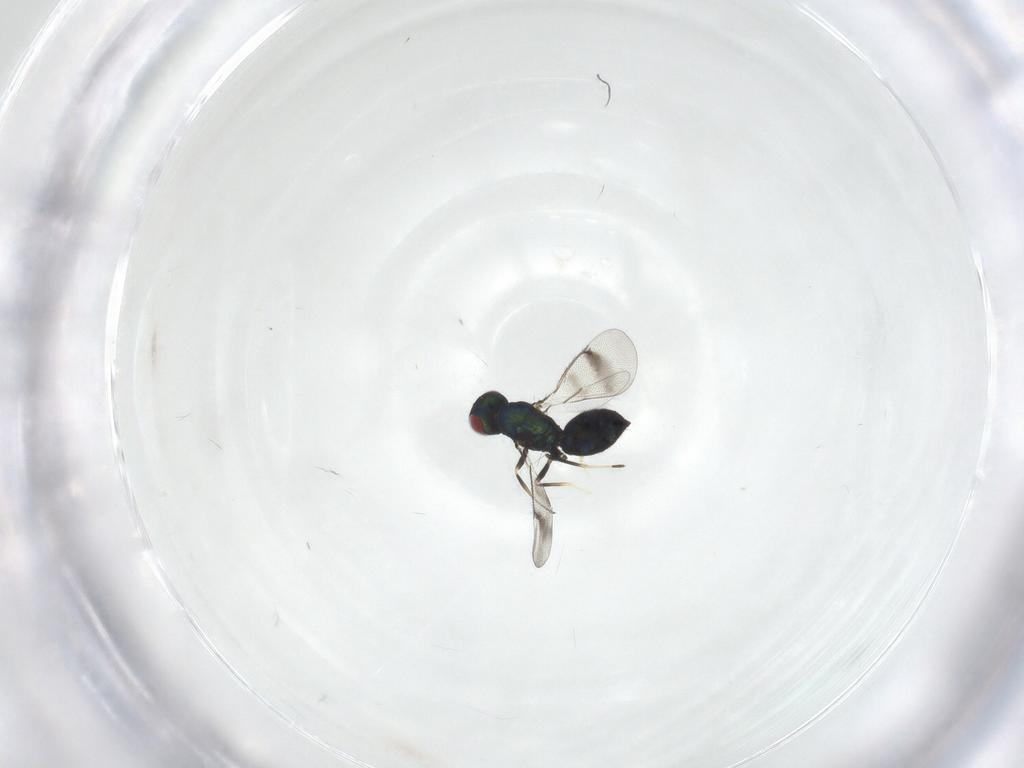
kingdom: Animalia
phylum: Arthropoda
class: Insecta
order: Hymenoptera
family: Eulophidae
